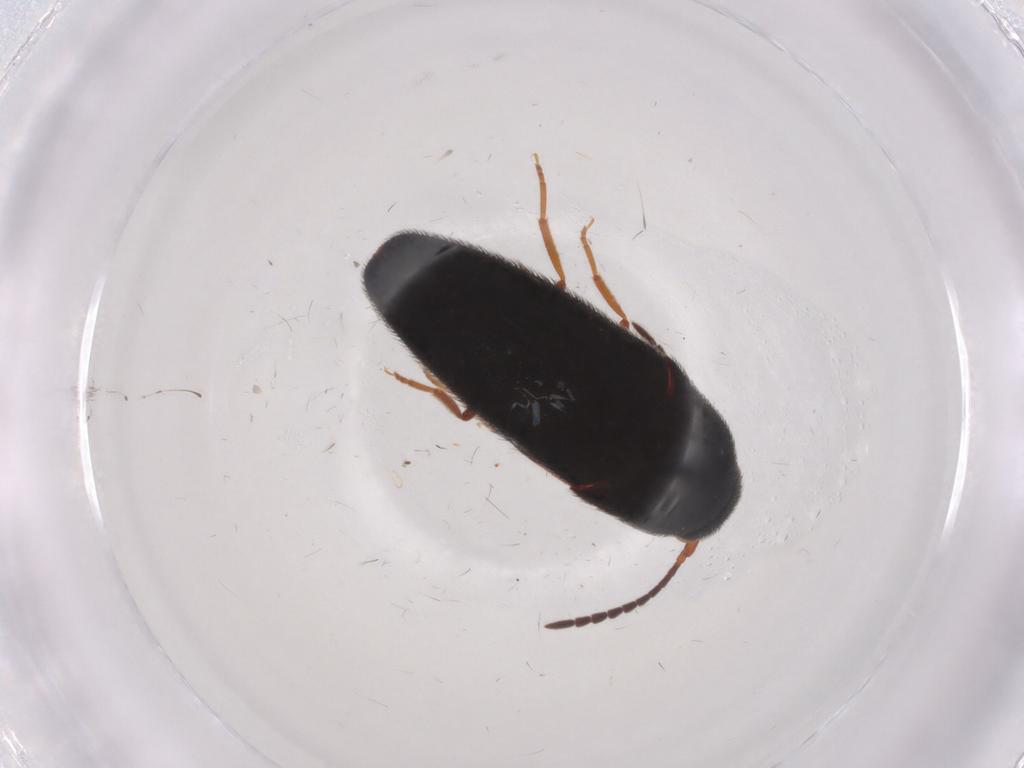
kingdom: Animalia
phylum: Arthropoda
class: Insecta
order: Coleoptera
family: Eucnemidae
